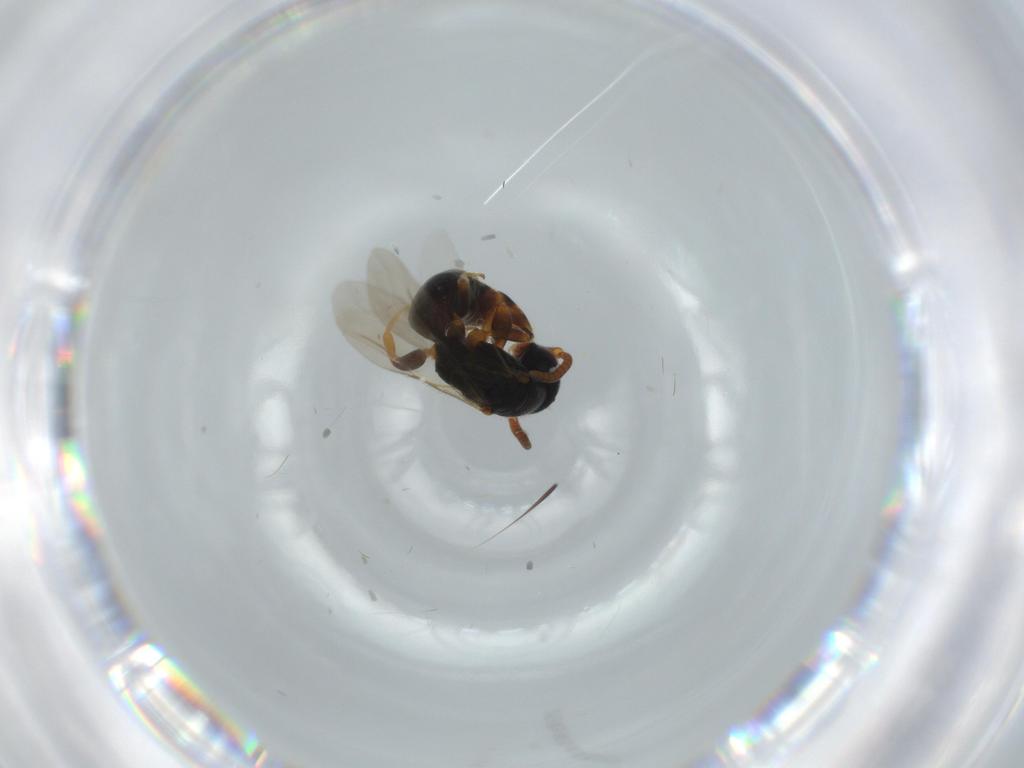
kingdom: Animalia
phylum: Arthropoda
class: Insecta
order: Hymenoptera
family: Bethylidae
